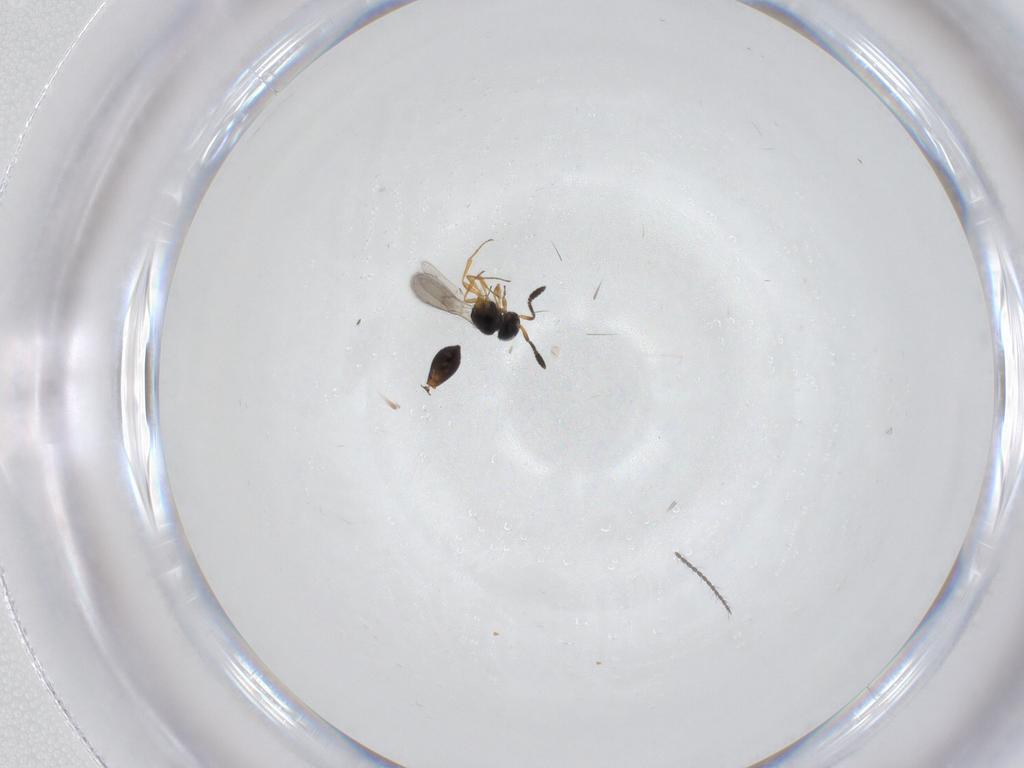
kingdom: Animalia
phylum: Arthropoda
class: Insecta
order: Hymenoptera
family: Scelionidae
